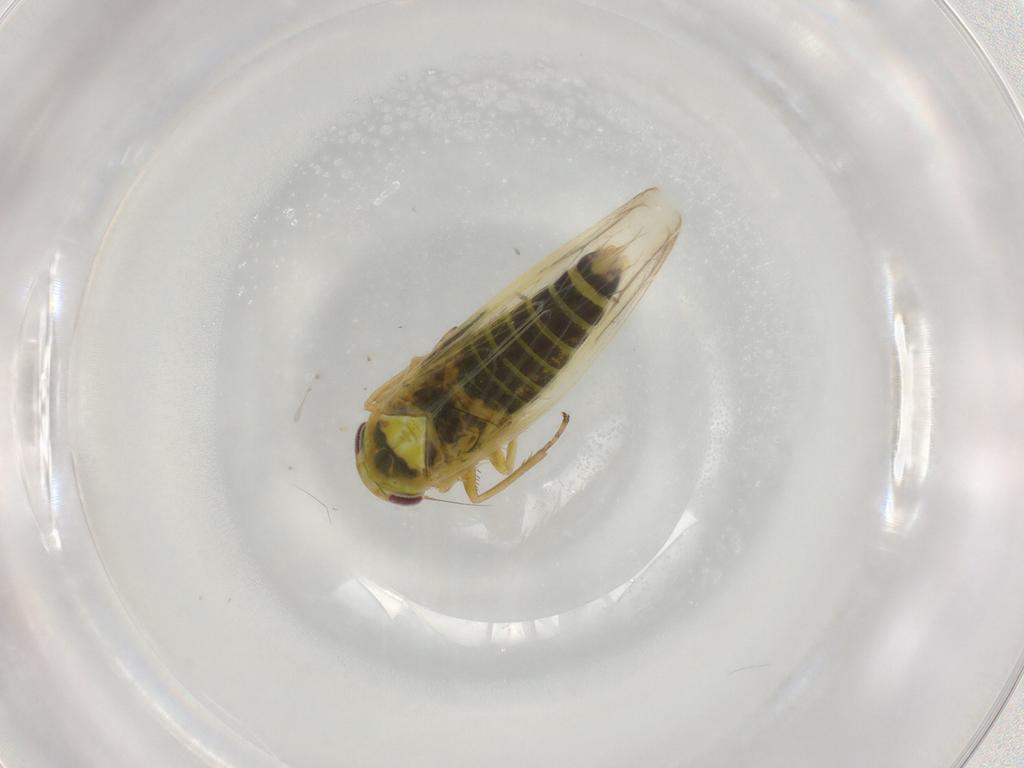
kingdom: Animalia
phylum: Arthropoda
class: Insecta
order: Hemiptera
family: Cicadellidae
